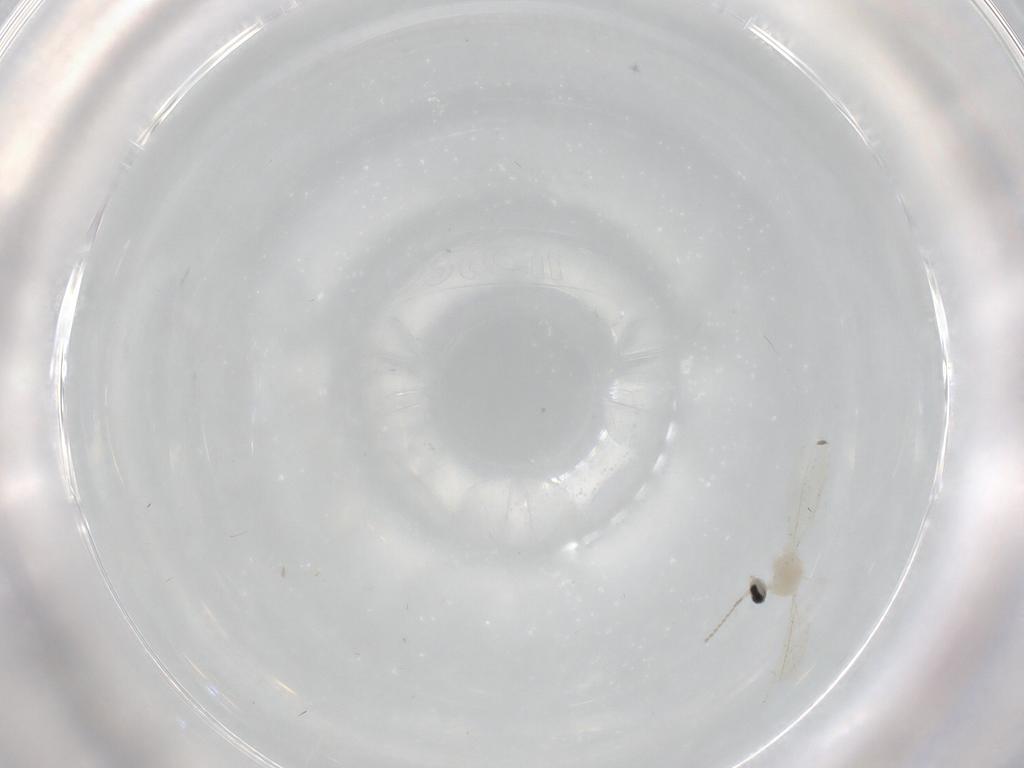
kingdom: Animalia
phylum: Arthropoda
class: Insecta
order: Diptera
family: Cecidomyiidae
